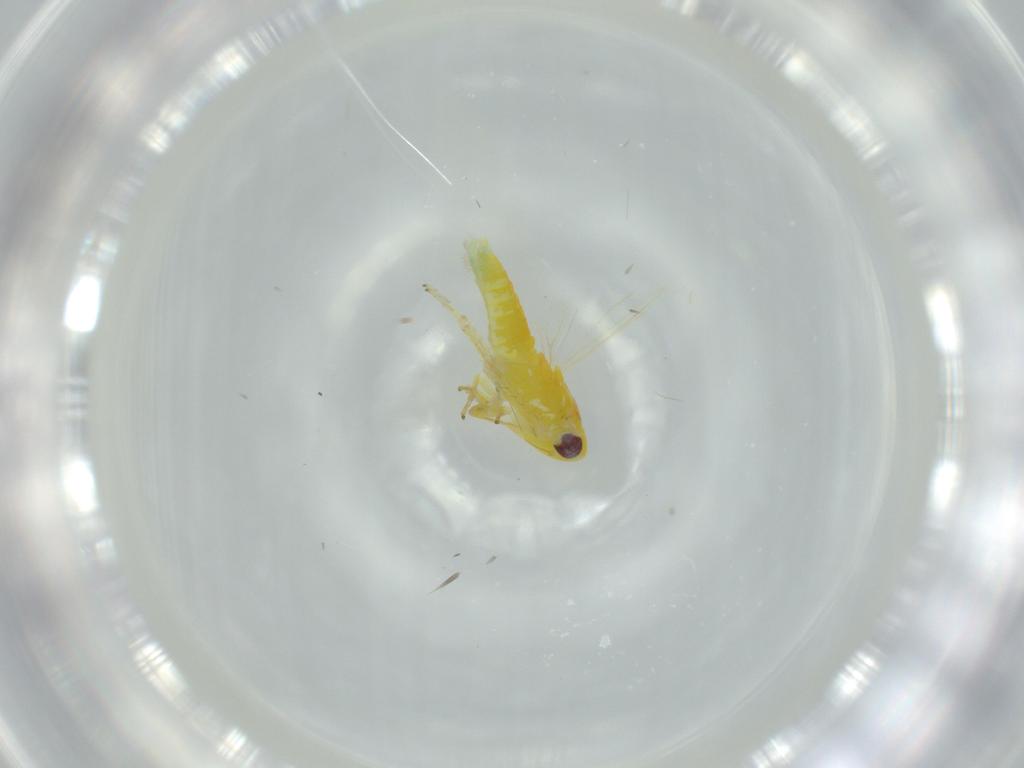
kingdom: Animalia
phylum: Arthropoda
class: Insecta
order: Hemiptera
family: Cicadellidae
